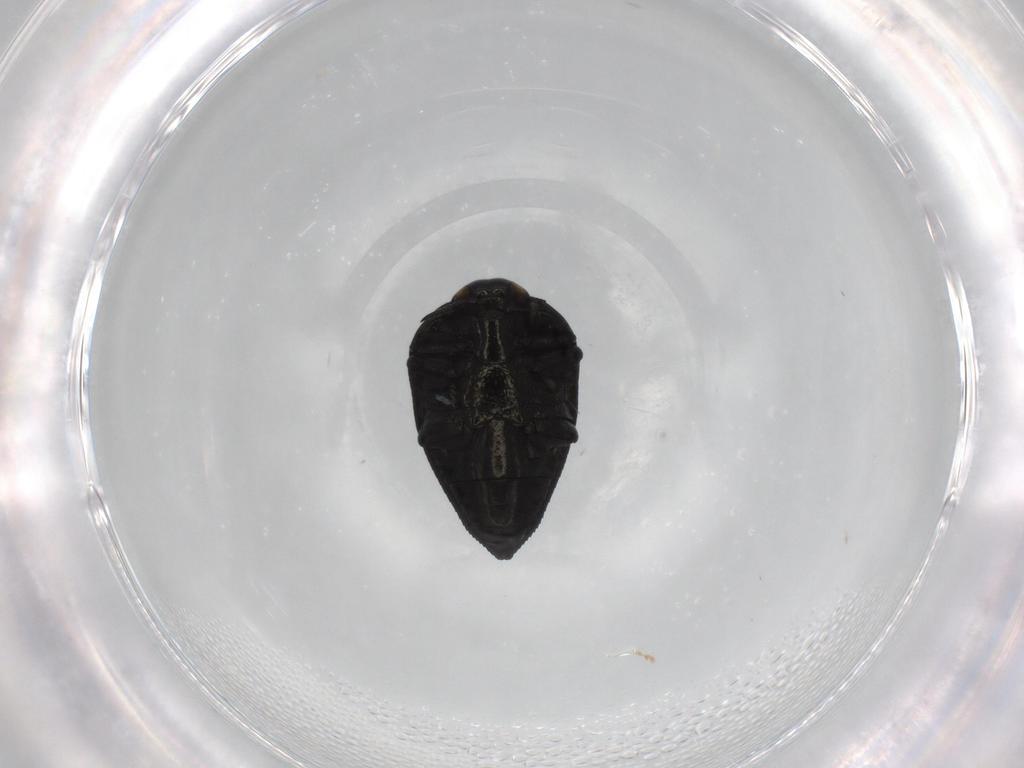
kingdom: Animalia
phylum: Arthropoda
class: Insecta
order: Coleoptera
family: Buprestidae
